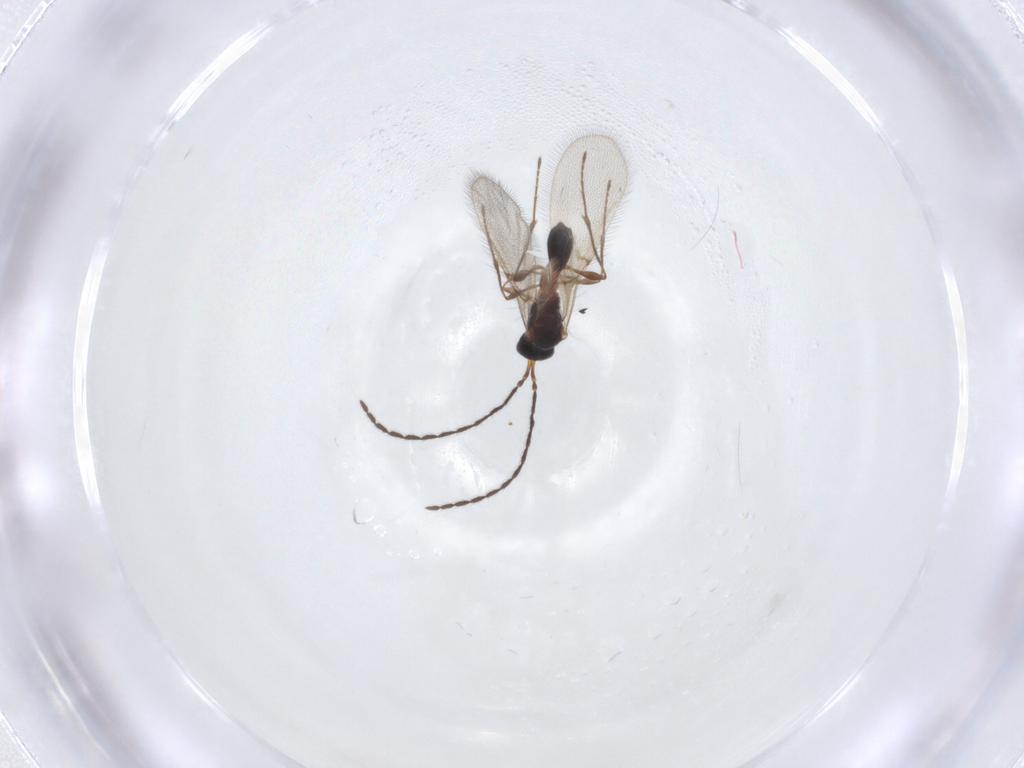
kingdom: Animalia
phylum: Arthropoda
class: Insecta
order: Hymenoptera
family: Diapriidae
